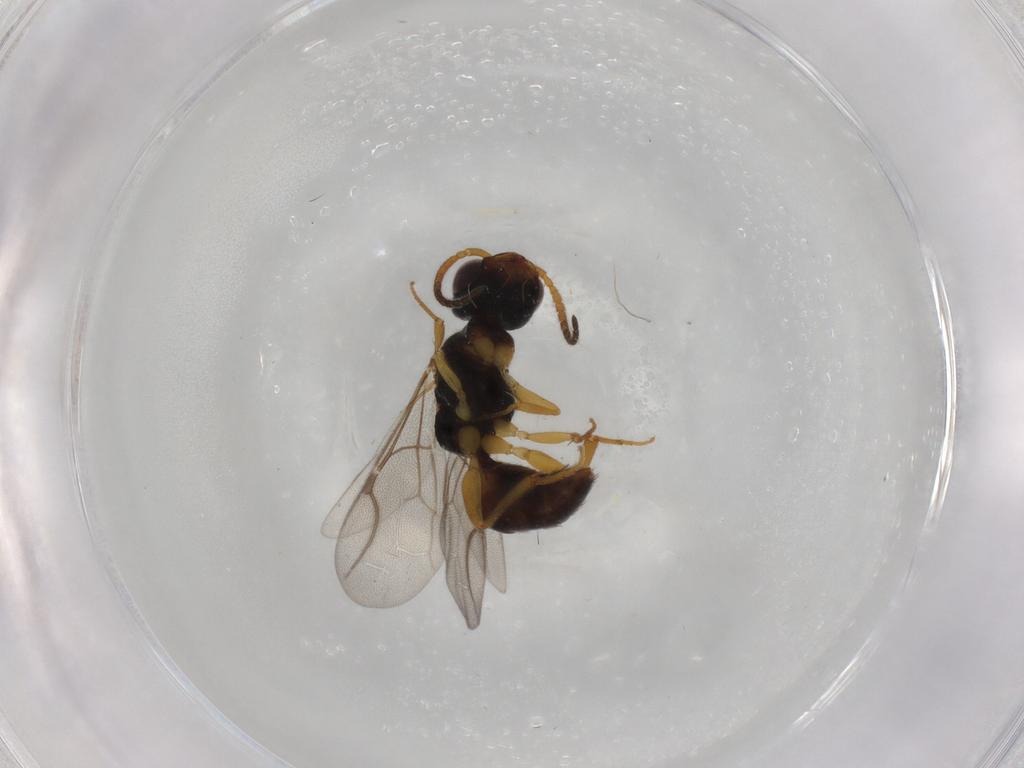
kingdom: Animalia
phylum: Arthropoda
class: Insecta
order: Hymenoptera
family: Bethylidae
